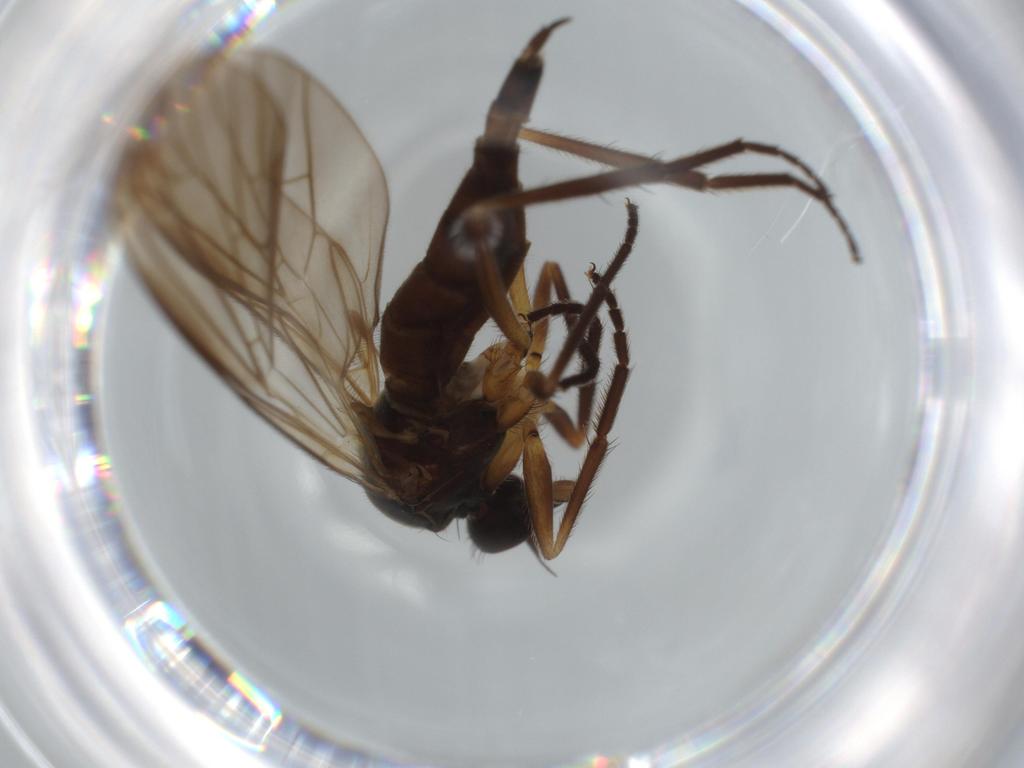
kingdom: Animalia
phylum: Arthropoda
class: Insecta
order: Diptera
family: Empididae
